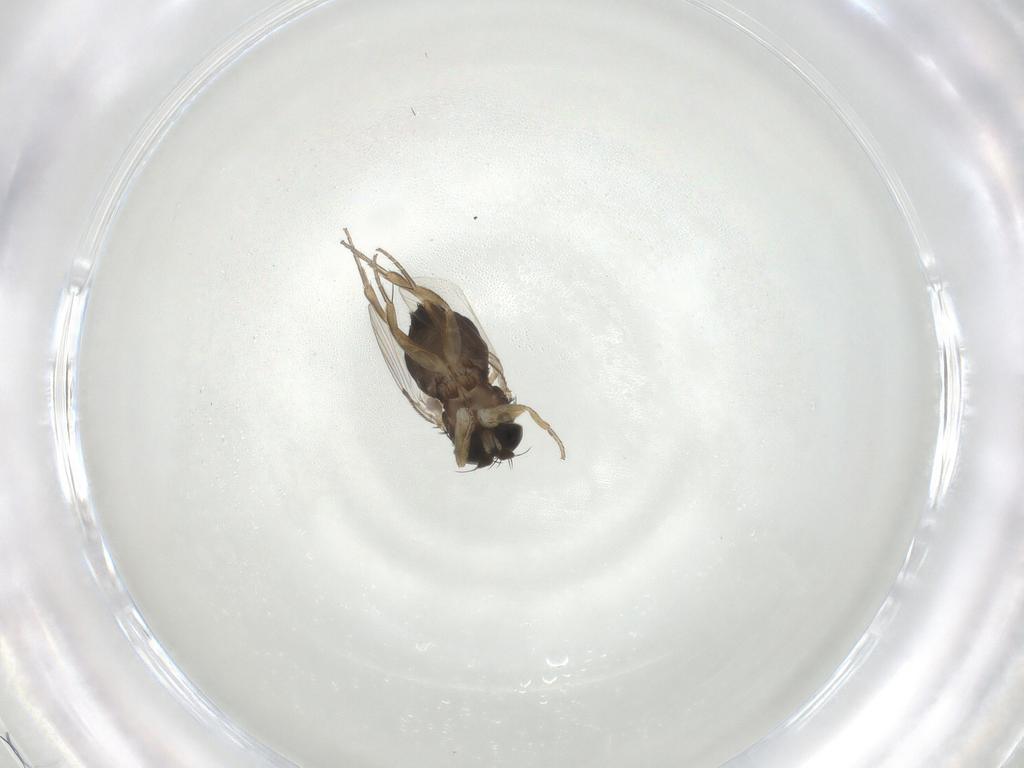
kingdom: Animalia
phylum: Arthropoda
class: Insecta
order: Diptera
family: Cecidomyiidae
